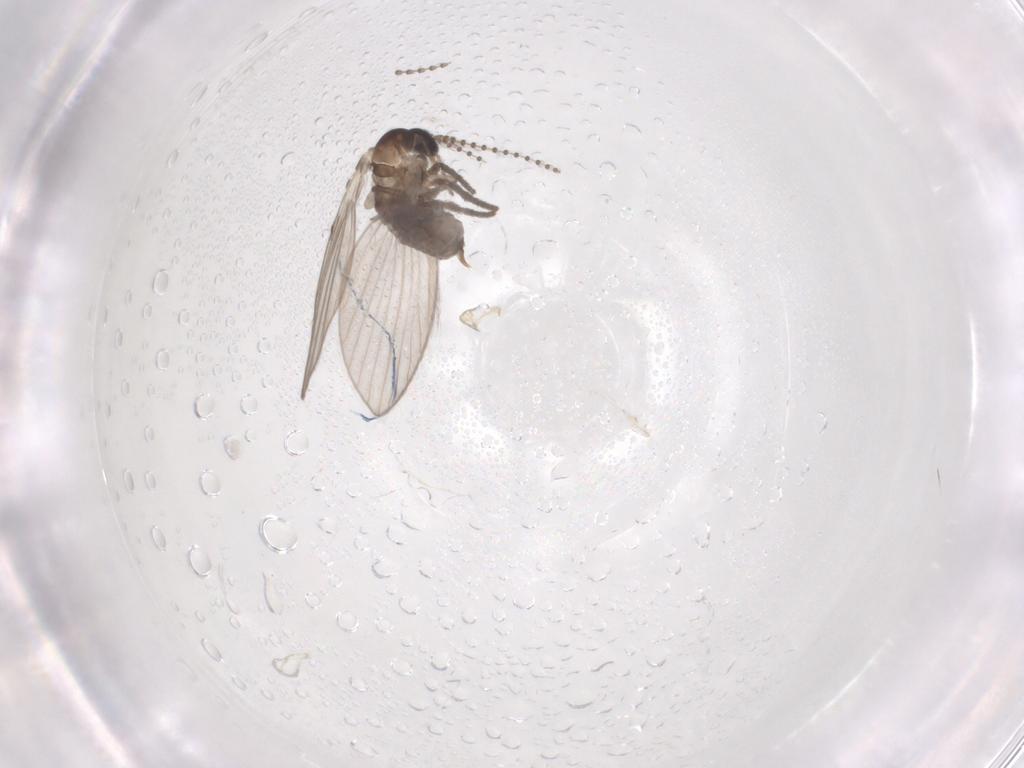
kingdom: Animalia
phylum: Arthropoda
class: Insecta
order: Diptera
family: Psychodidae
